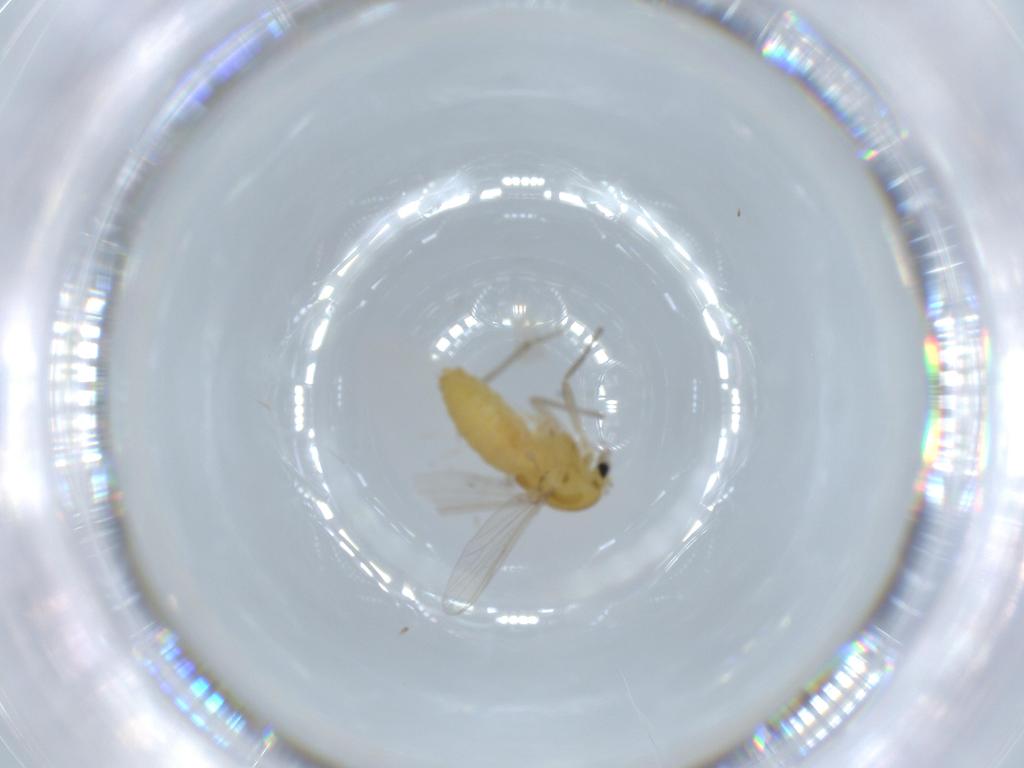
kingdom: Animalia
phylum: Arthropoda
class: Insecta
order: Diptera
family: Chironomidae
